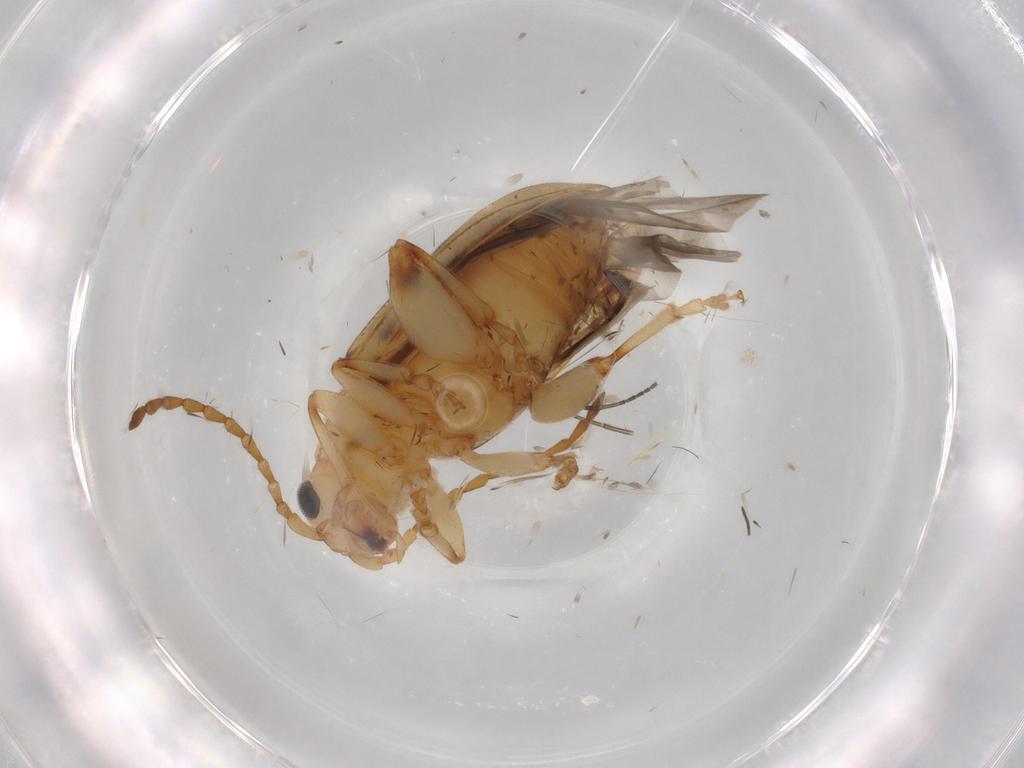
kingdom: Animalia
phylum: Arthropoda
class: Insecta
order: Coleoptera
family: Chrysomelidae
